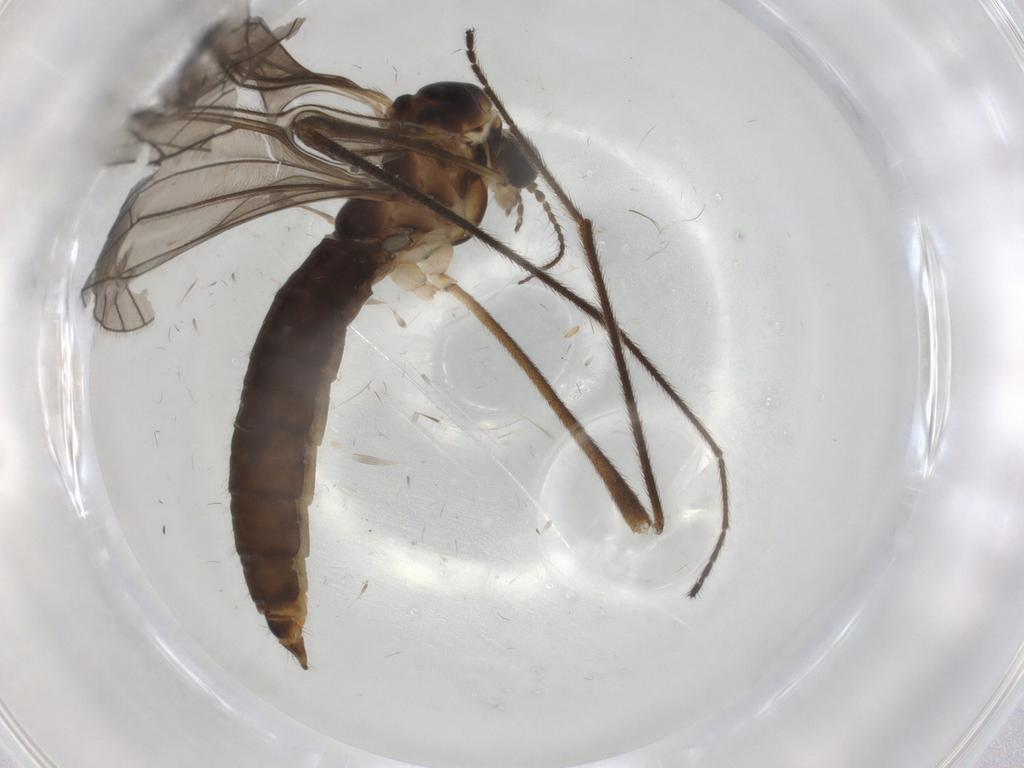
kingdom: Animalia
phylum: Arthropoda
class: Insecta
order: Diptera
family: Limoniidae
